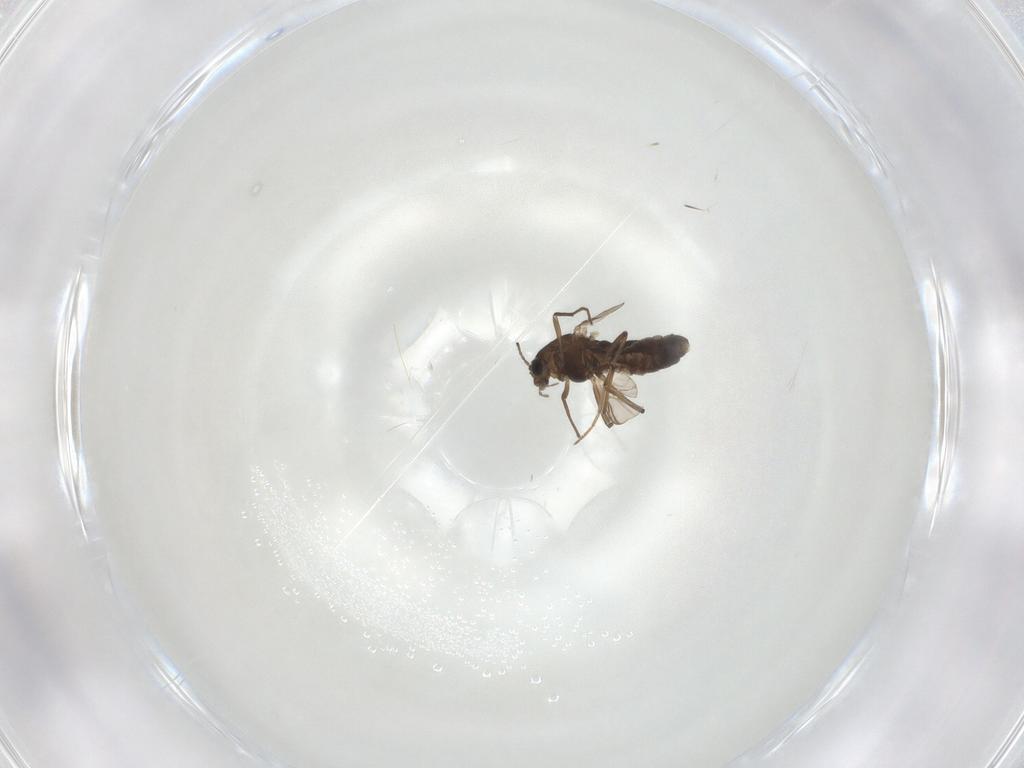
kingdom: Animalia
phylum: Arthropoda
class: Insecta
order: Diptera
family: Chironomidae
